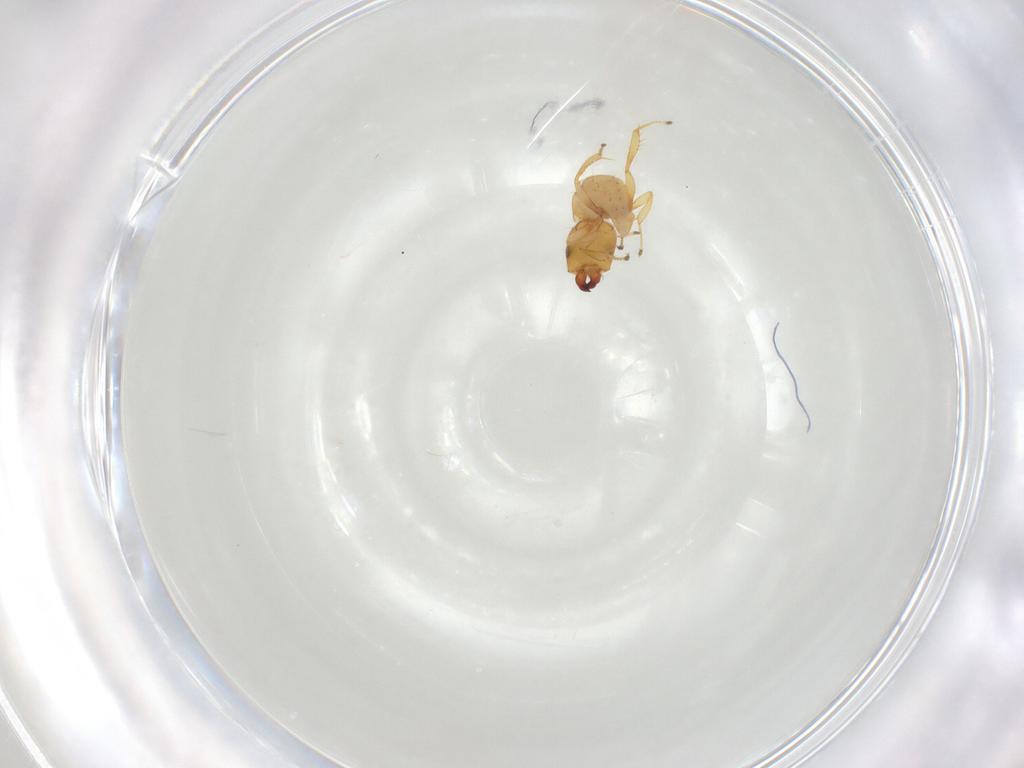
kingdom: Animalia
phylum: Arthropoda
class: Insecta
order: Hymenoptera
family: Pteromalidae
